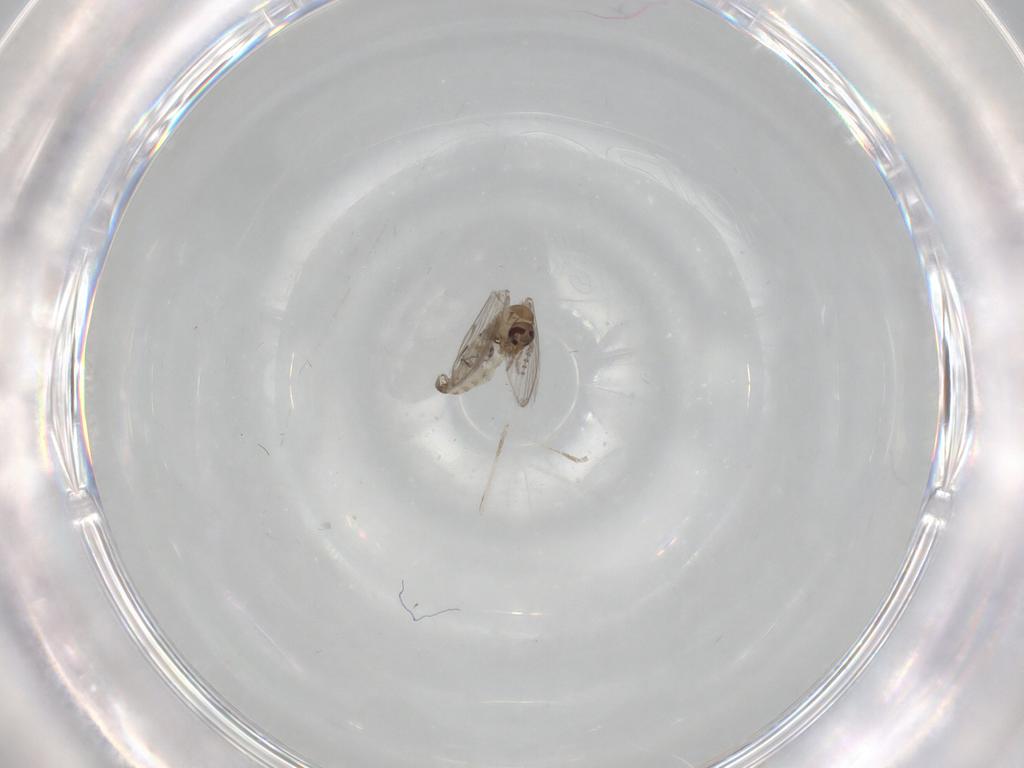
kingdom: Animalia
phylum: Arthropoda
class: Insecta
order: Diptera
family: Psychodidae
